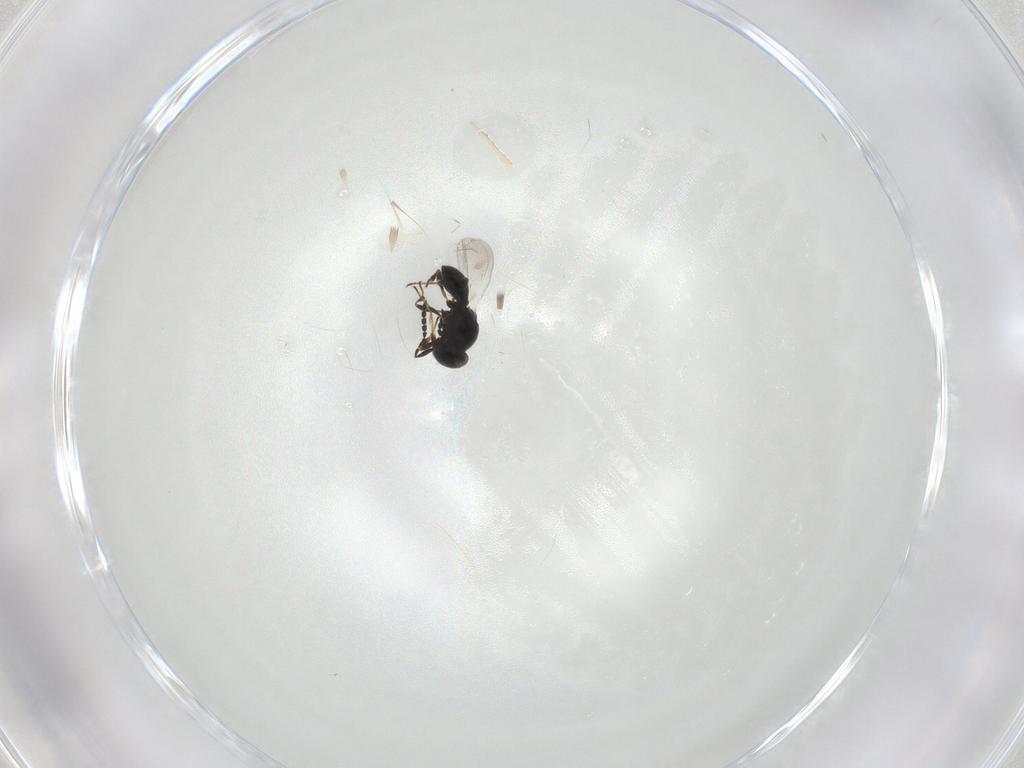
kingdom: Animalia
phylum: Arthropoda
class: Insecta
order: Hymenoptera
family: Platygastridae
